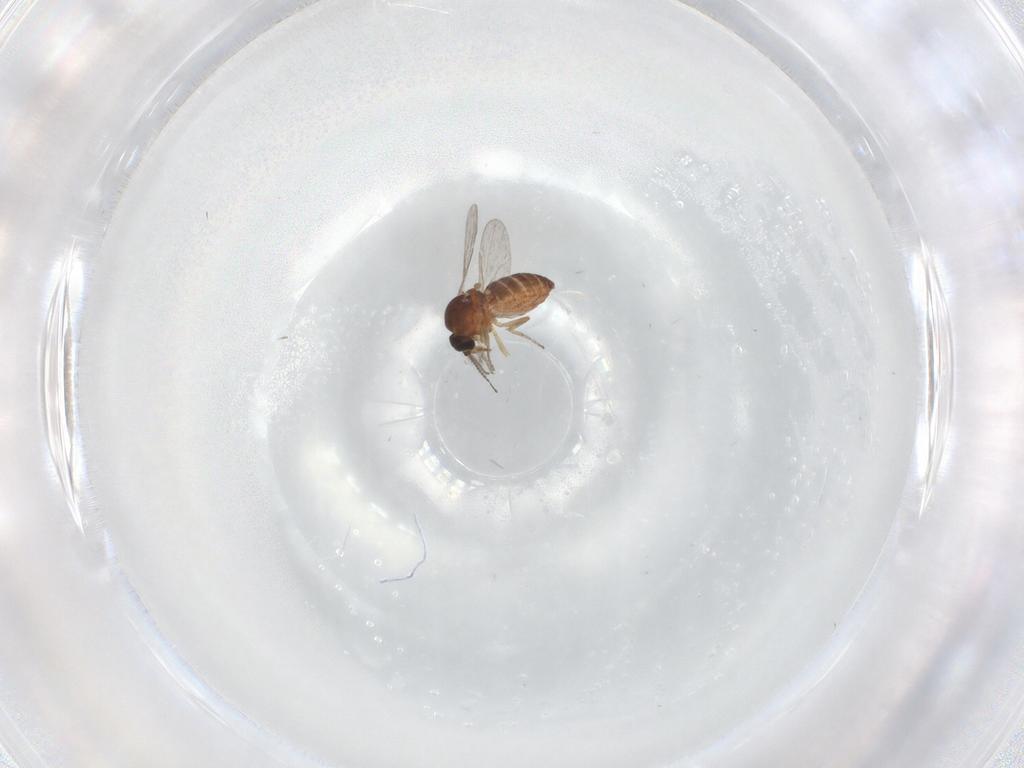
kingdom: Animalia
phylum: Arthropoda
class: Insecta
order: Diptera
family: Ceratopogonidae
